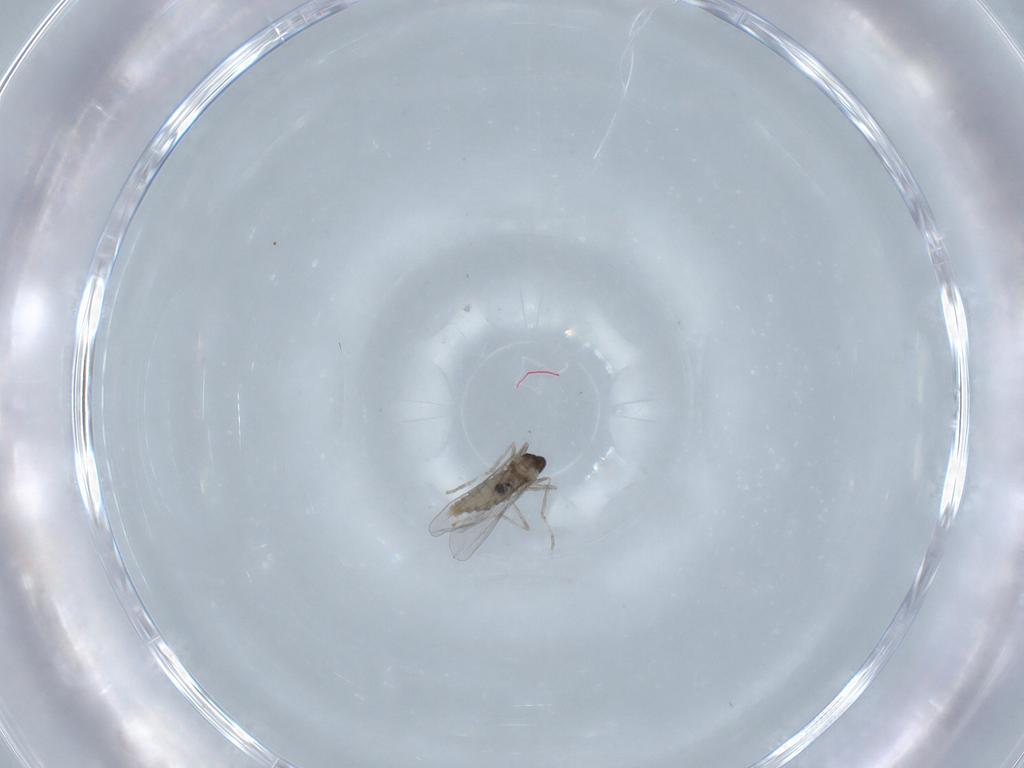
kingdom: Animalia
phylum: Arthropoda
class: Insecta
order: Diptera
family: Cecidomyiidae
